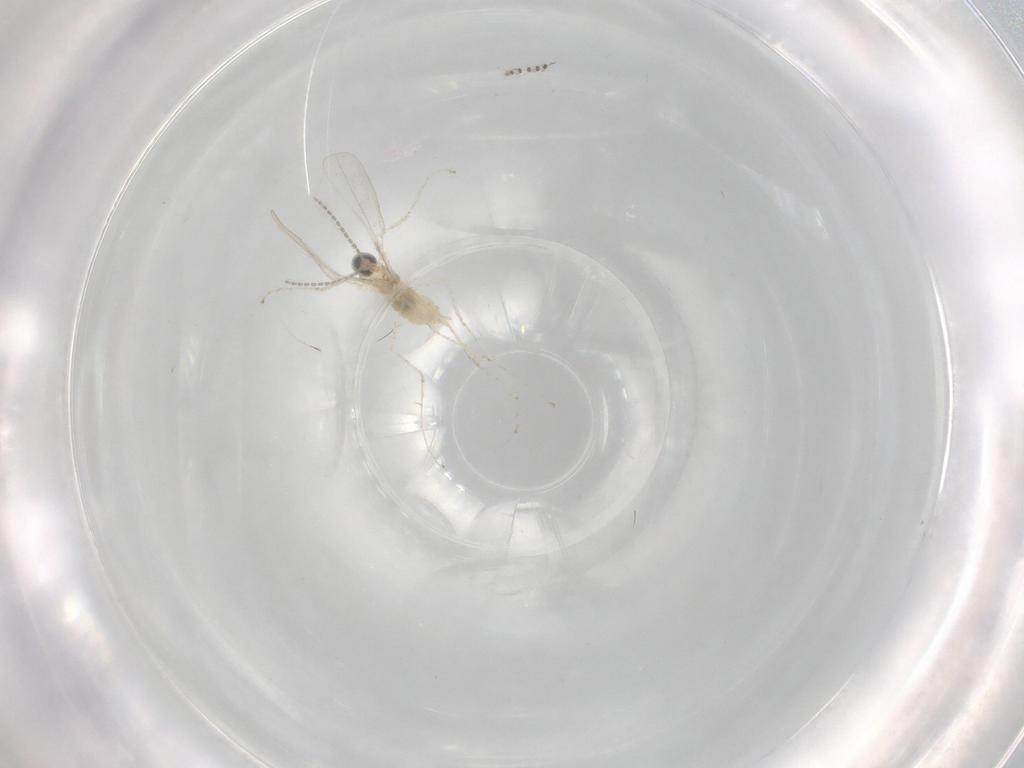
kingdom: Animalia
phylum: Arthropoda
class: Insecta
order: Diptera
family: Cecidomyiidae
